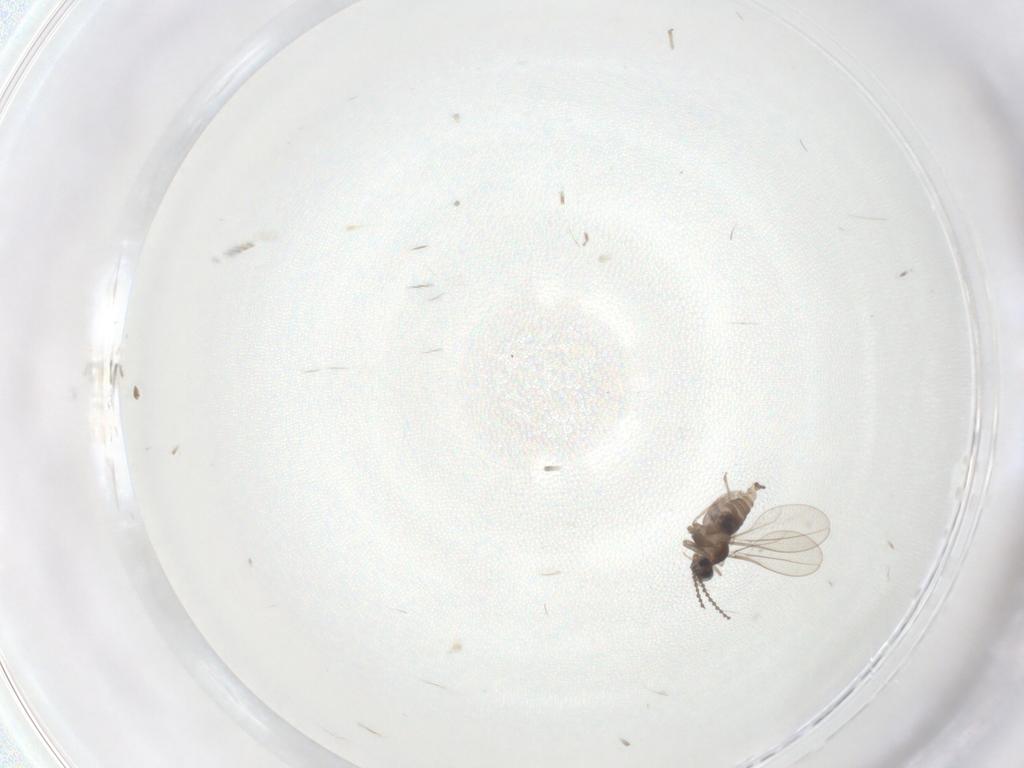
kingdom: Animalia
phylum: Arthropoda
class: Insecta
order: Diptera
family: Cecidomyiidae
